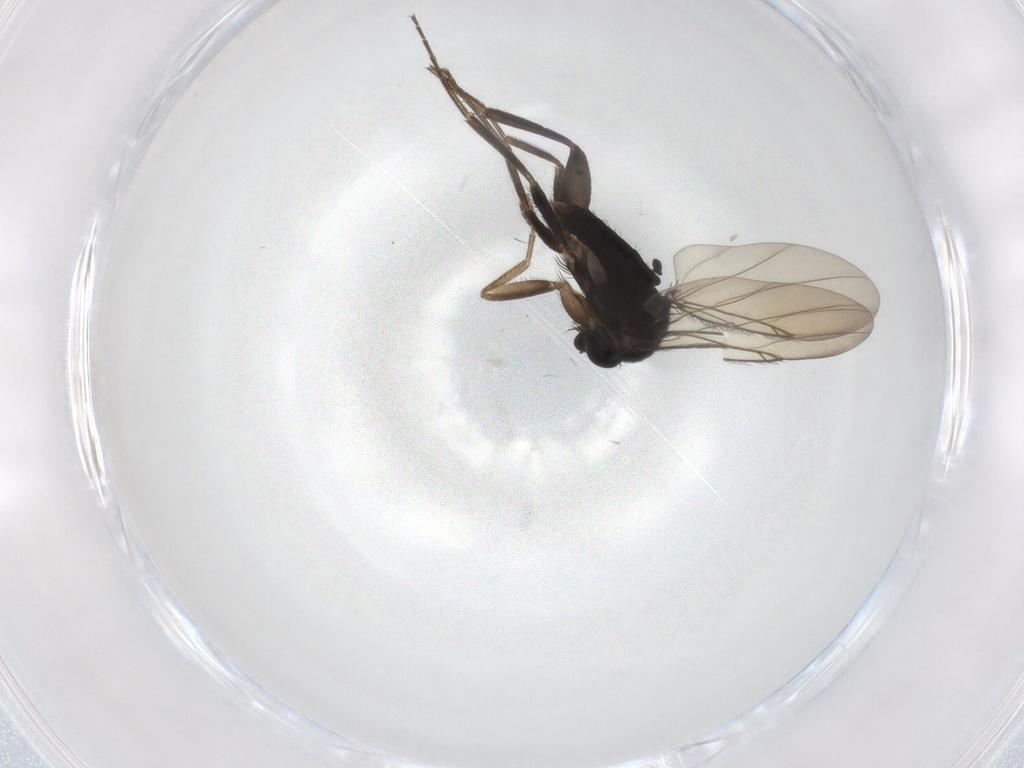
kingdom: Animalia
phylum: Arthropoda
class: Insecta
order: Diptera
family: Phoridae
